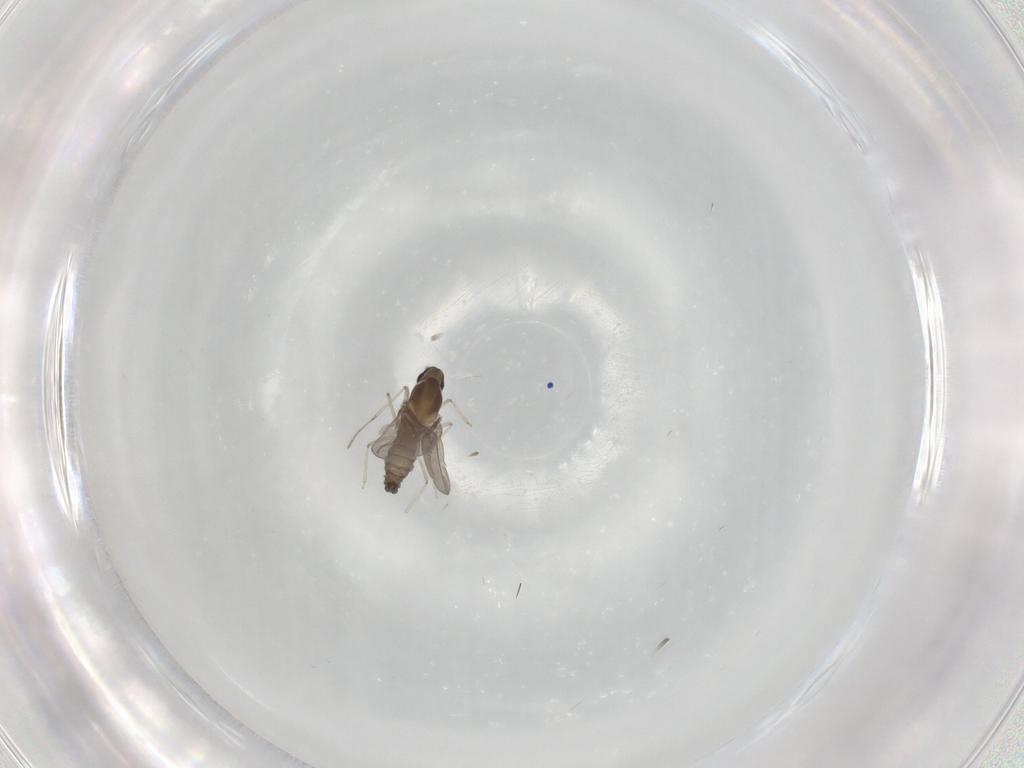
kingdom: Animalia
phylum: Arthropoda
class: Insecta
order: Diptera
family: Cecidomyiidae
